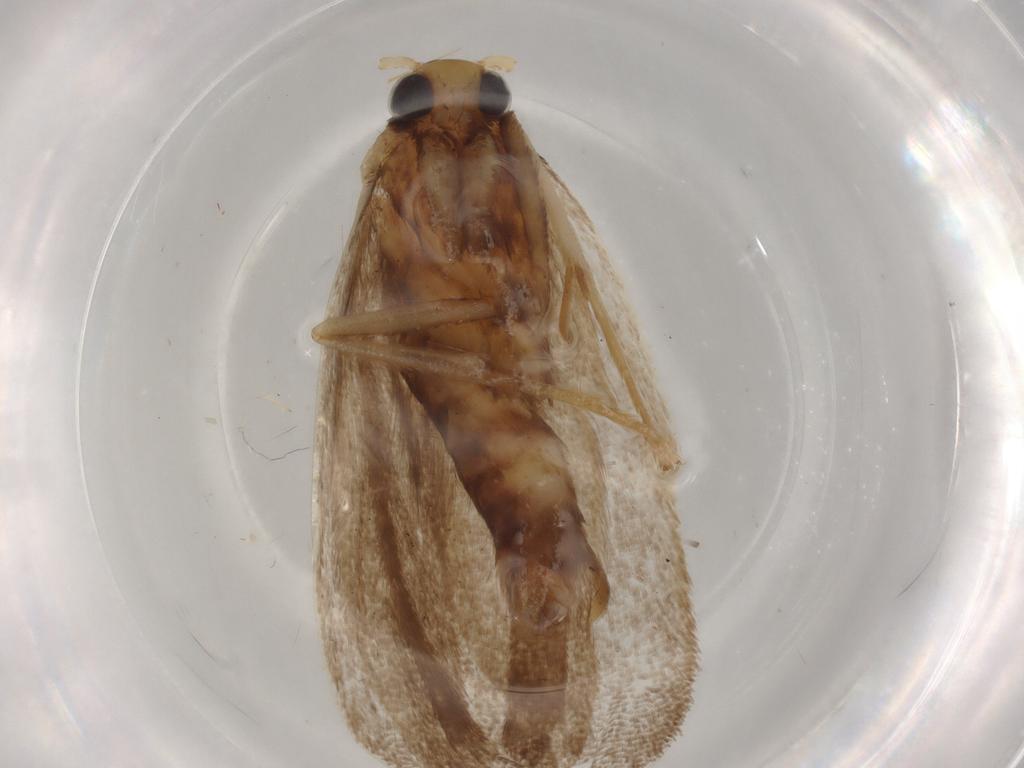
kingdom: Animalia
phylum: Arthropoda
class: Insecta
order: Lepidoptera
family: Lecithoceridae
